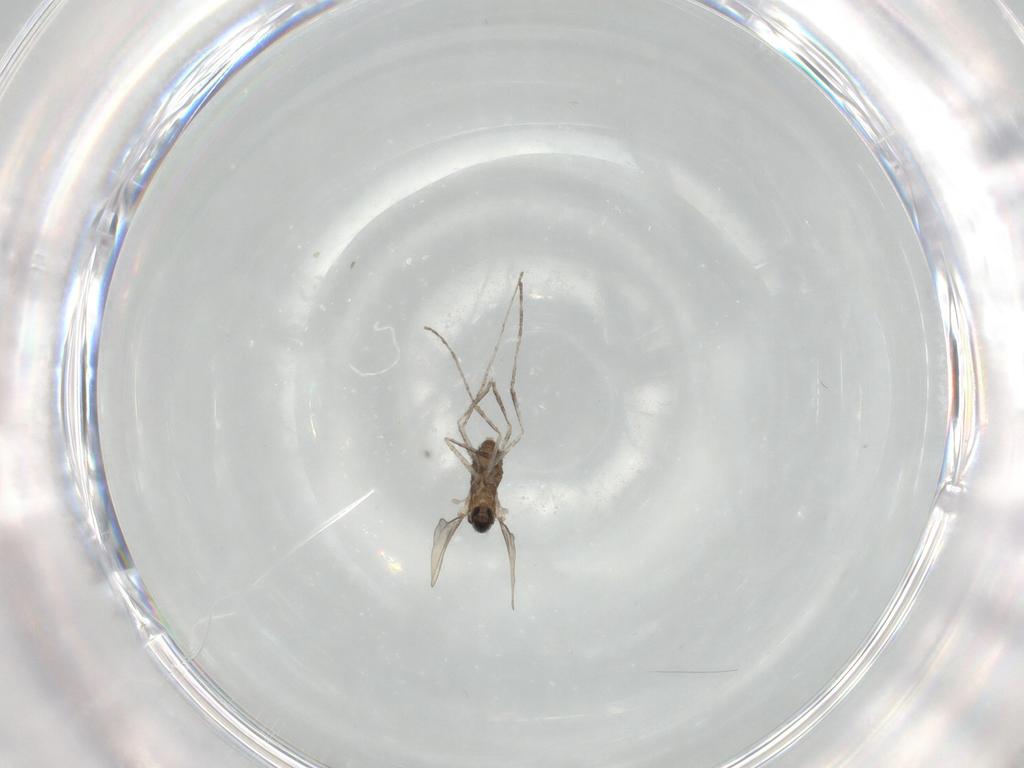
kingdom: Animalia
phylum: Arthropoda
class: Insecta
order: Diptera
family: Cecidomyiidae
